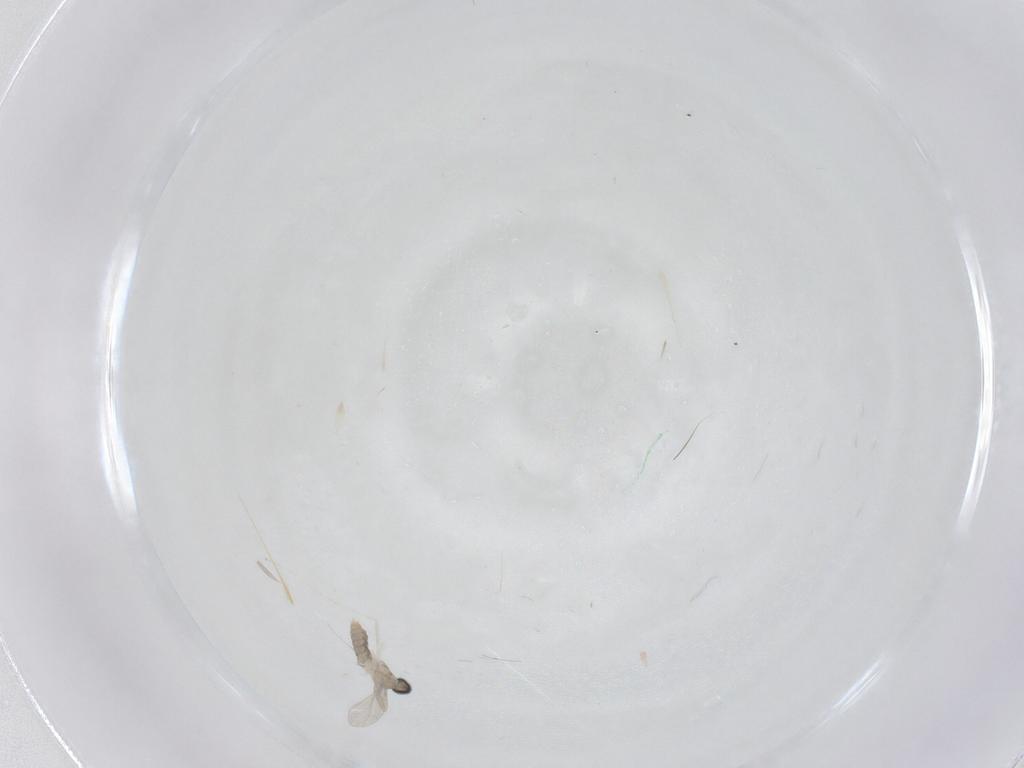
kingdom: Animalia
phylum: Arthropoda
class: Insecta
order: Diptera
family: Cecidomyiidae
